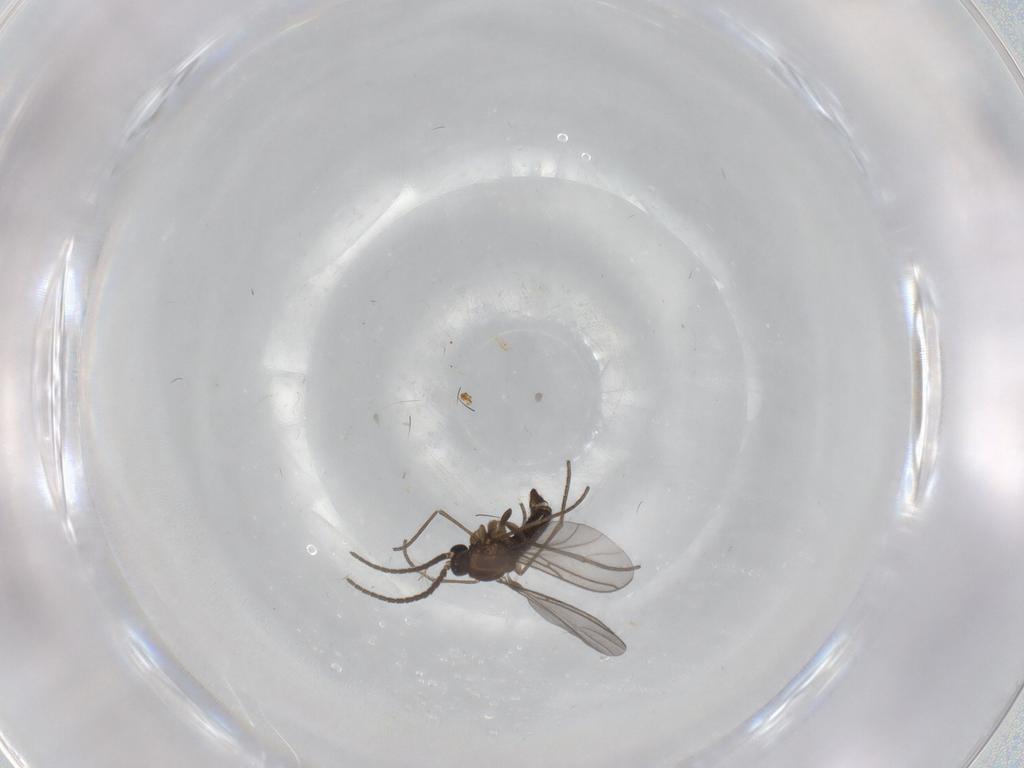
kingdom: Animalia
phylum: Arthropoda
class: Insecta
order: Diptera
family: Sciaridae
